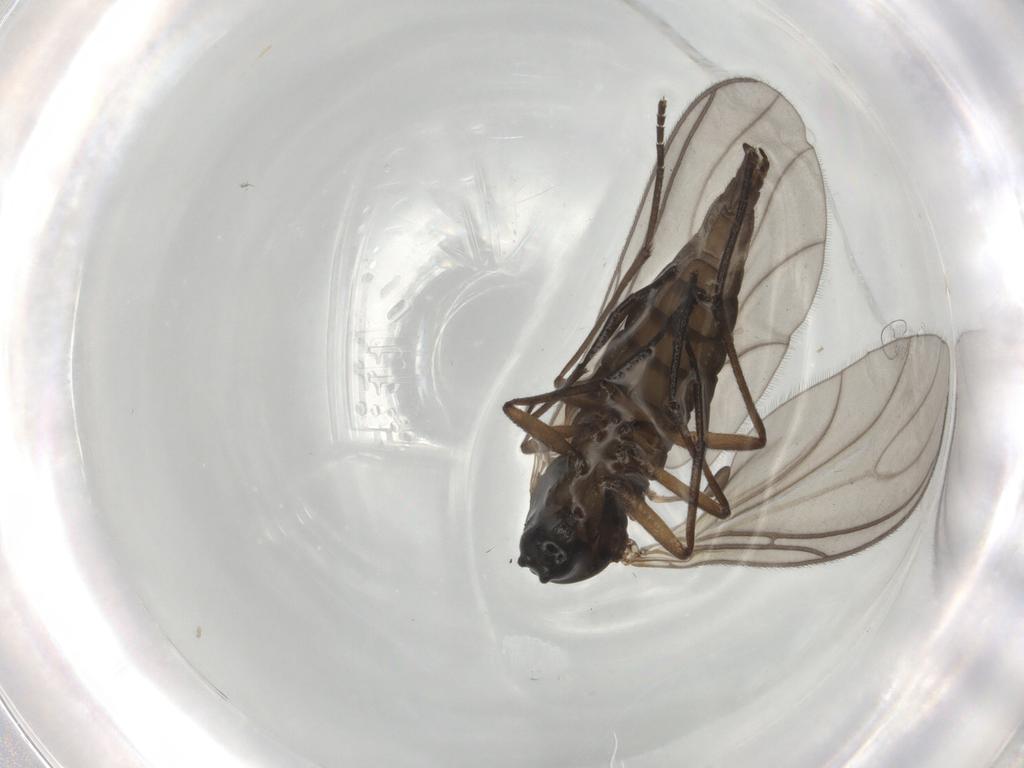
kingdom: Animalia
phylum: Arthropoda
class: Insecta
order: Diptera
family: Sciaridae
